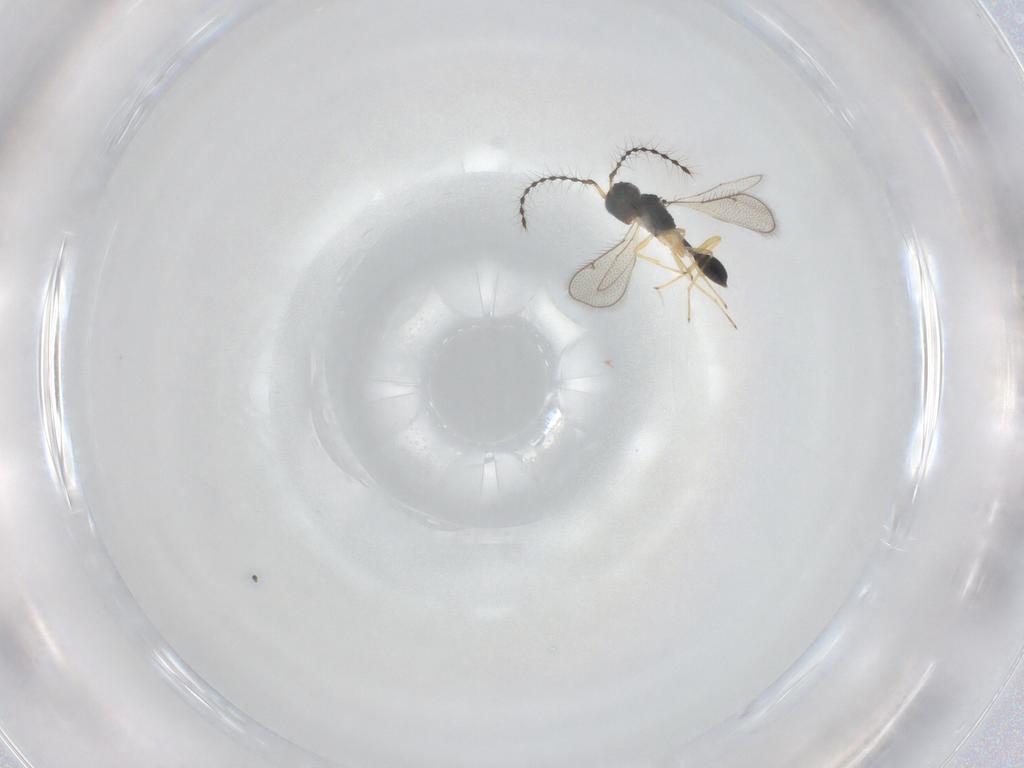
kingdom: Animalia
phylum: Arthropoda
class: Insecta
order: Hymenoptera
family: Diparidae
